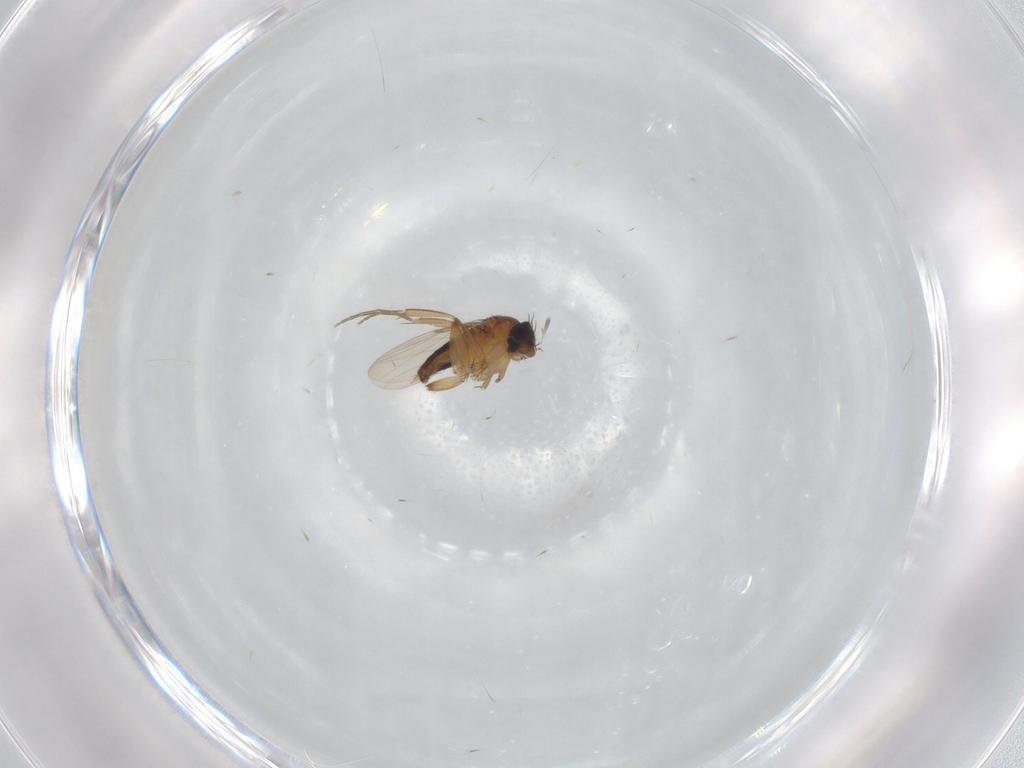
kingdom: Animalia
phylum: Arthropoda
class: Insecta
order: Diptera
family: Phoridae
